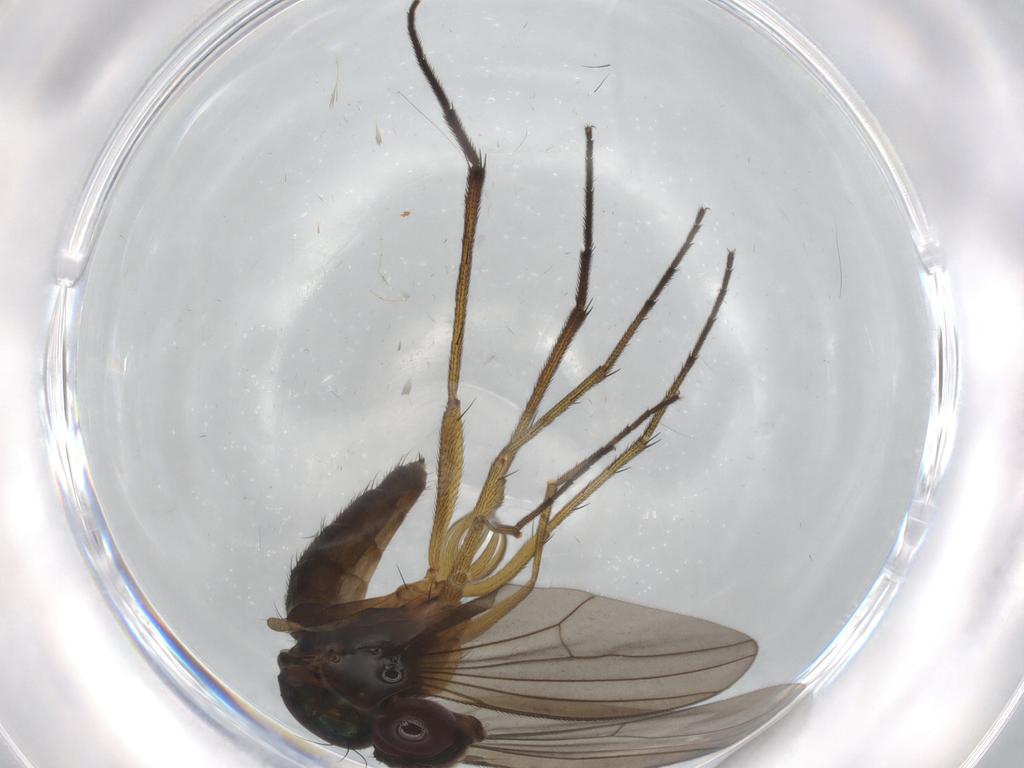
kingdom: Animalia
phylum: Arthropoda
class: Insecta
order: Diptera
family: Dolichopodidae
